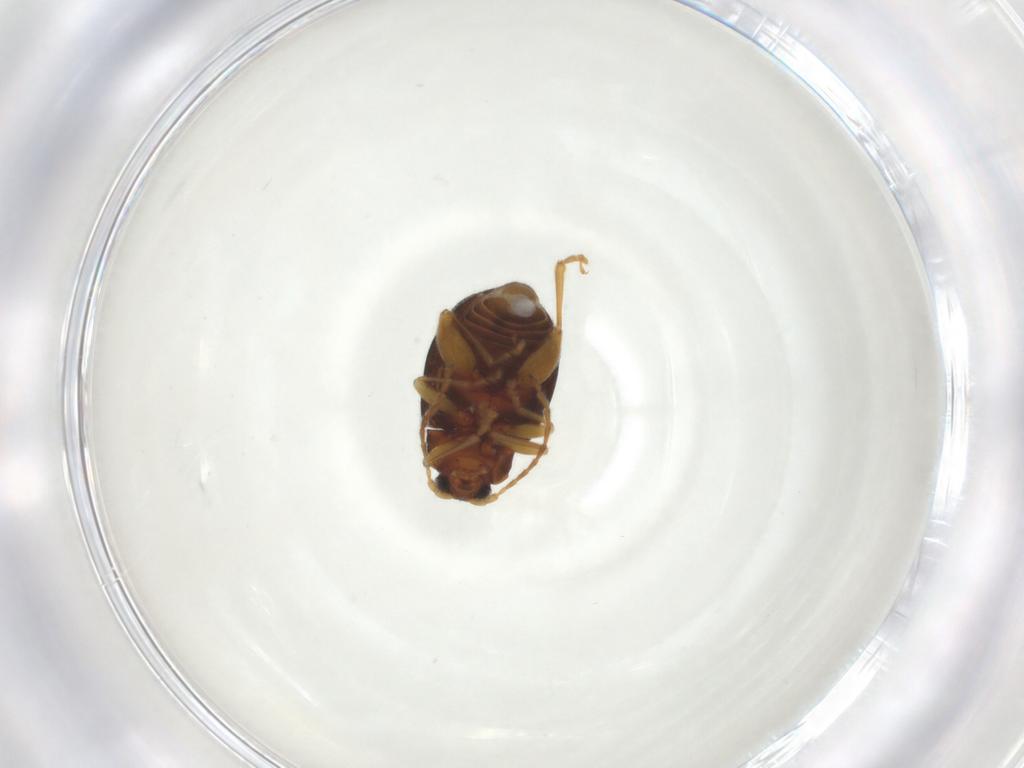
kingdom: Animalia
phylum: Arthropoda
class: Insecta
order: Coleoptera
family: Chrysomelidae
